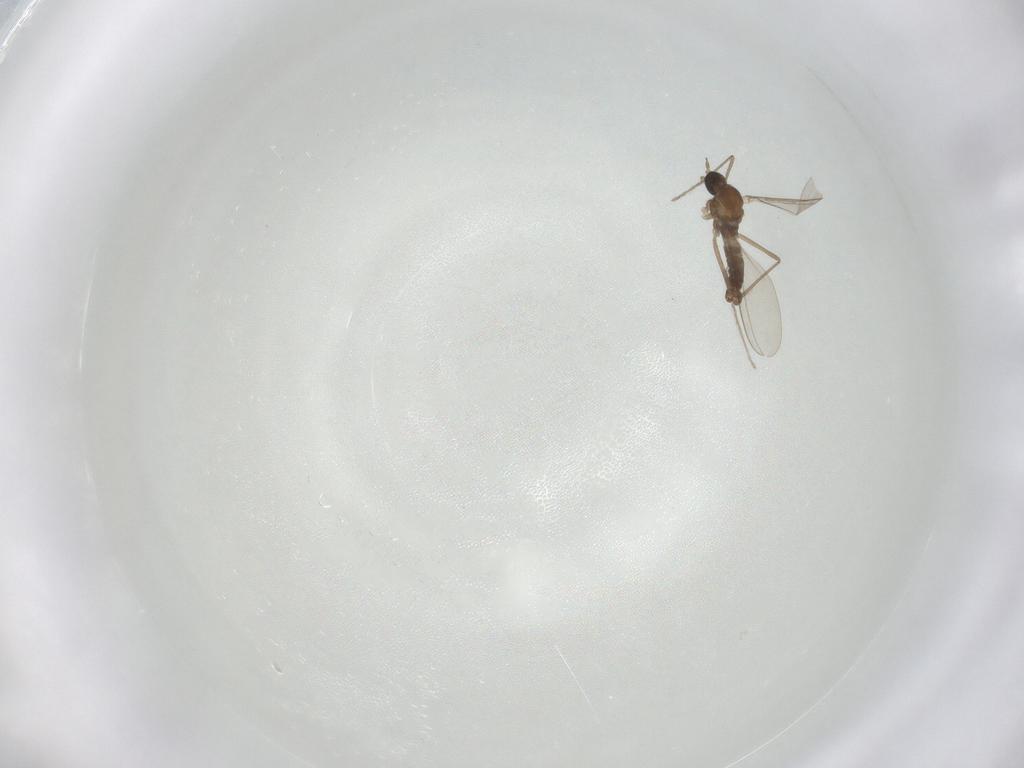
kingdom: Animalia
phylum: Arthropoda
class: Insecta
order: Diptera
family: Cecidomyiidae
